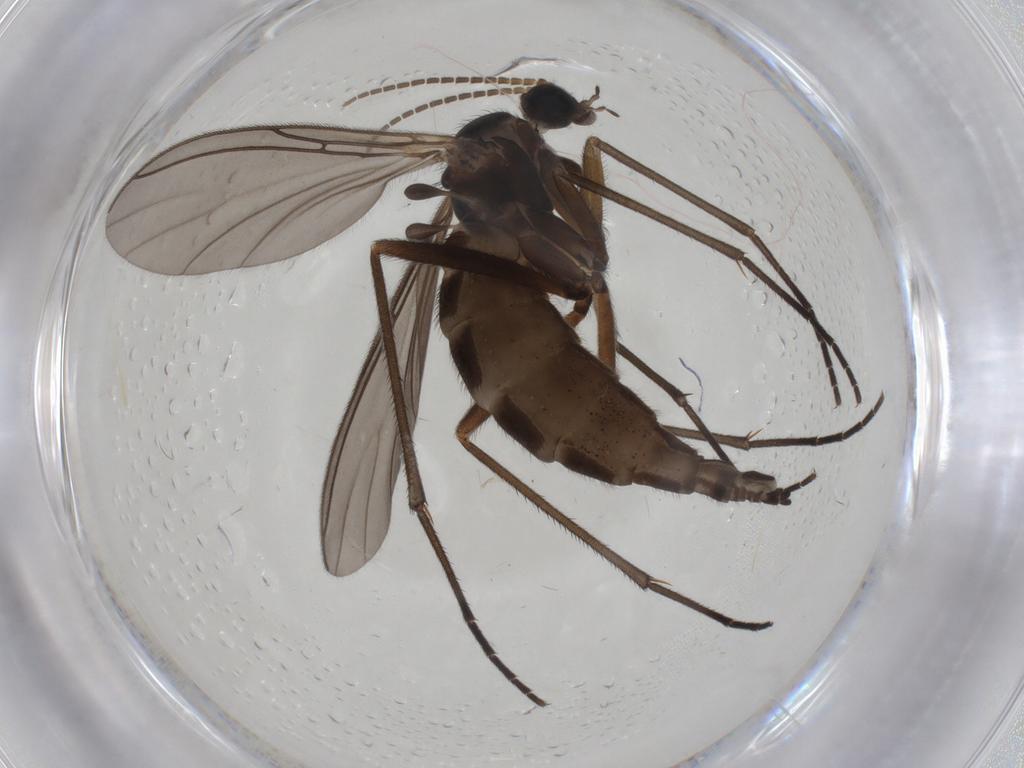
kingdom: Animalia
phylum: Arthropoda
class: Insecta
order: Diptera
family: Sciaridae
